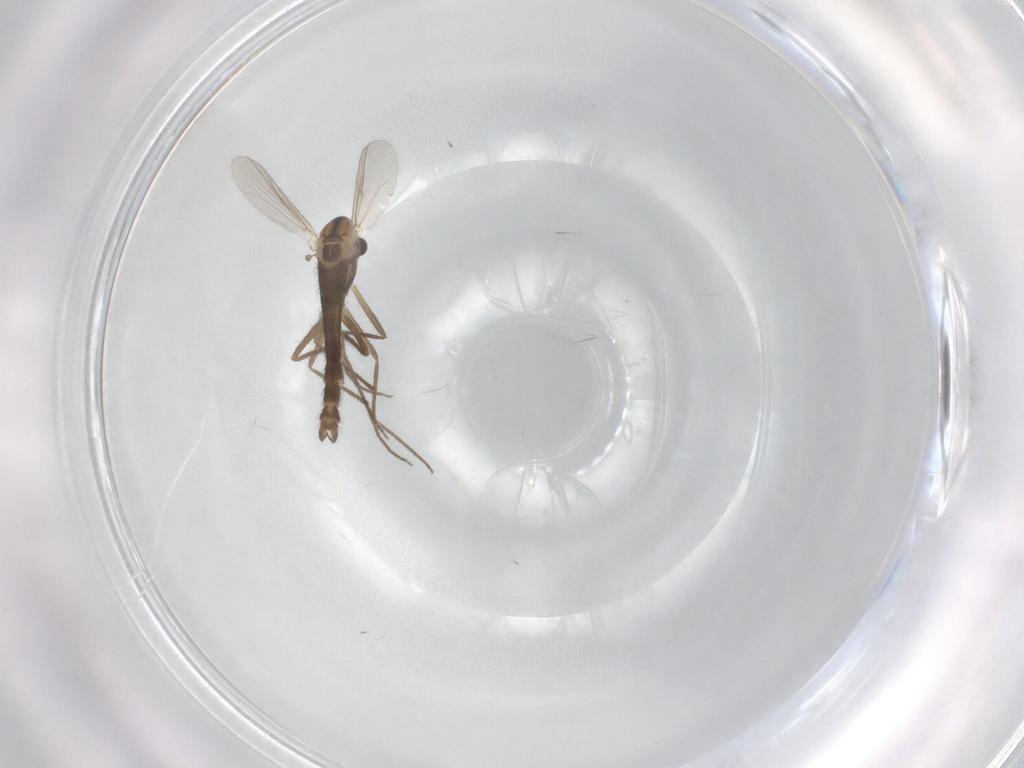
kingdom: Animalia
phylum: Arthropoda
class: Insecta
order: Diptera
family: Chironomidae
